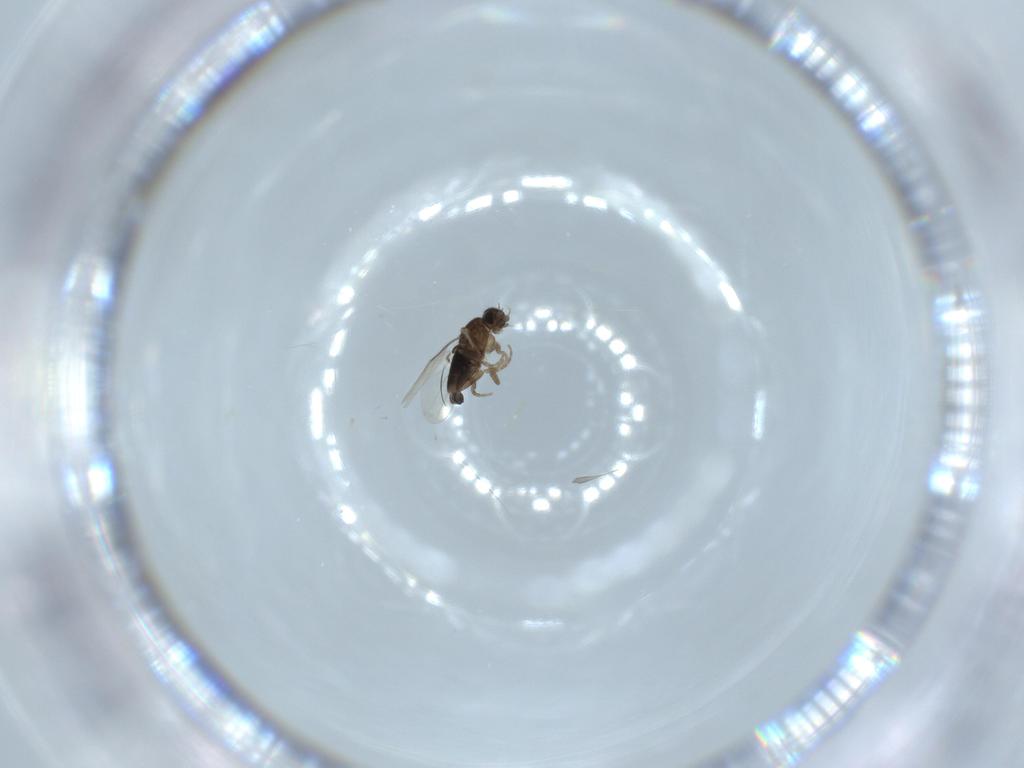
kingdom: Animalia
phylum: Arthropoda
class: Insecta
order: Diptera
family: Phoridae
